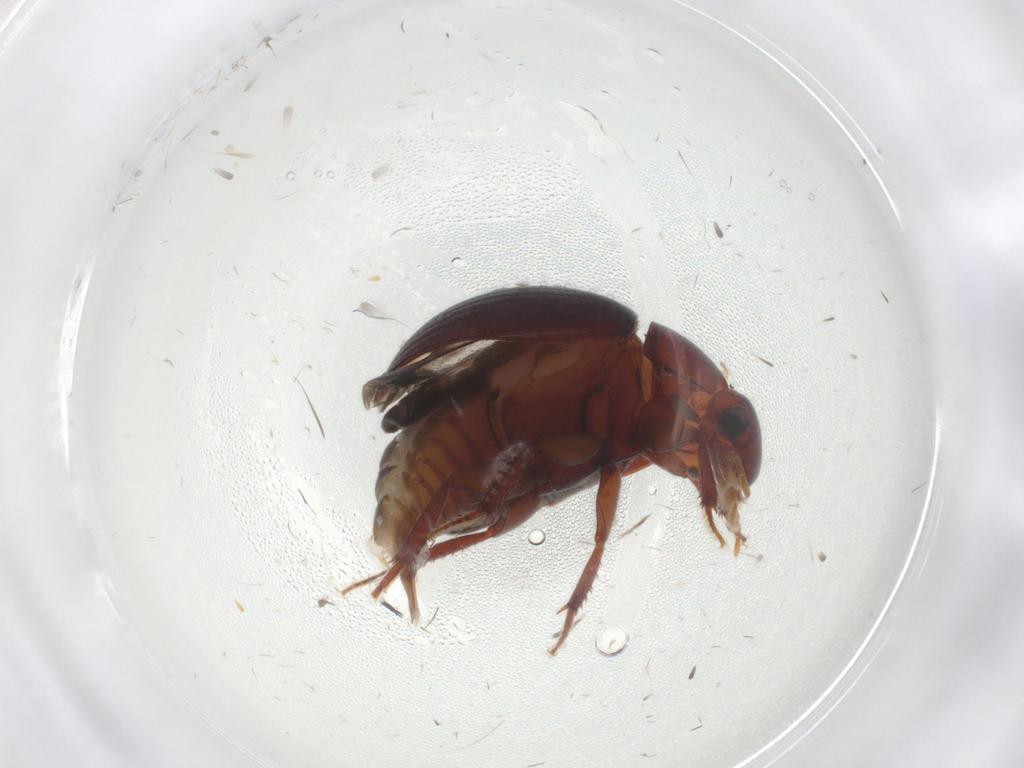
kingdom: Animalia
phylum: Arthropoda
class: Insecta
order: Coleoptera
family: Hydrophilidae
